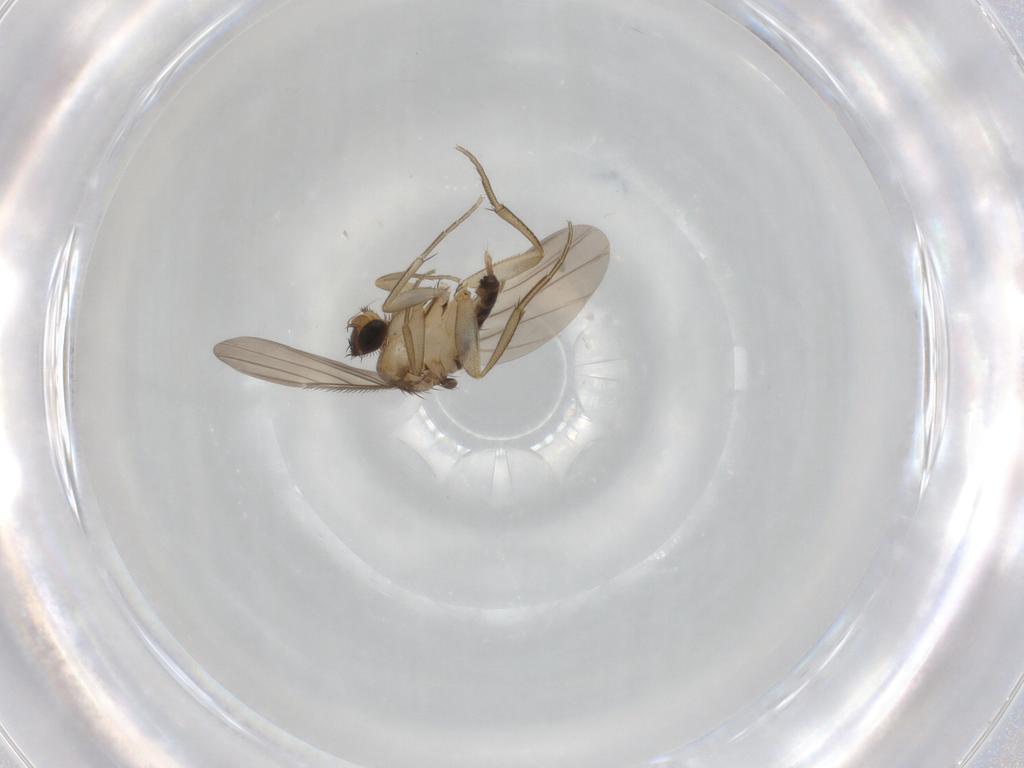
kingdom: Animalia
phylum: Arthropoda
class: Insecta
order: Diptera
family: Phoridae
